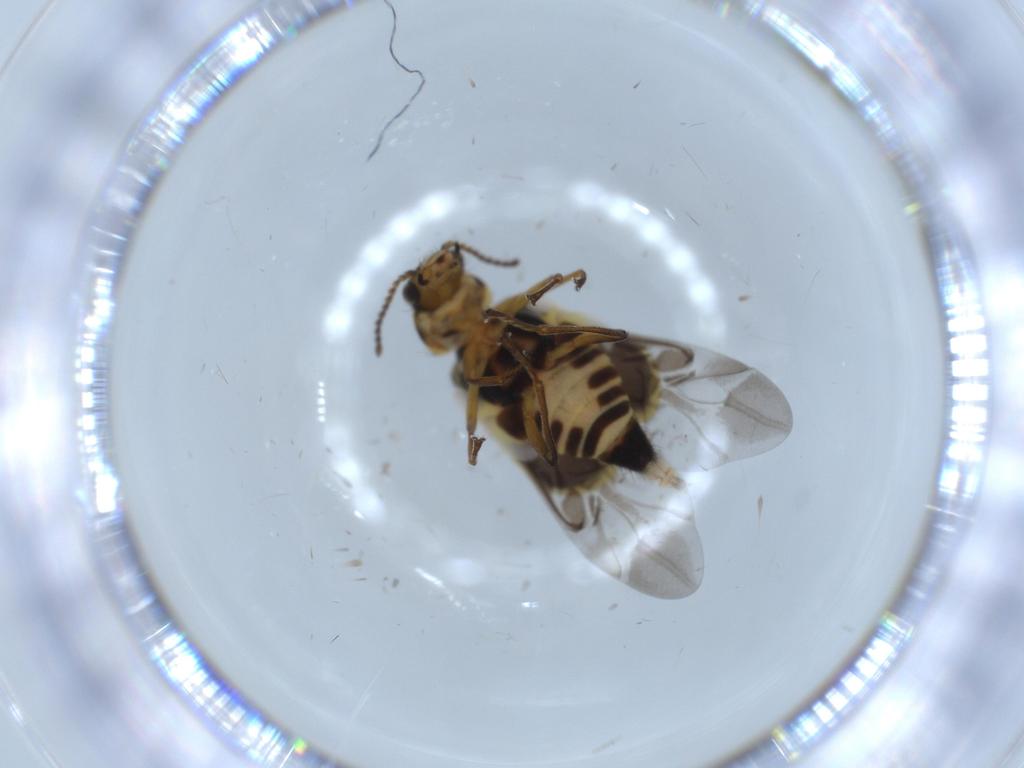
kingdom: Animalia
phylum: Arthropoda
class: Insecta
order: Coleoptera
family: Melyridae
